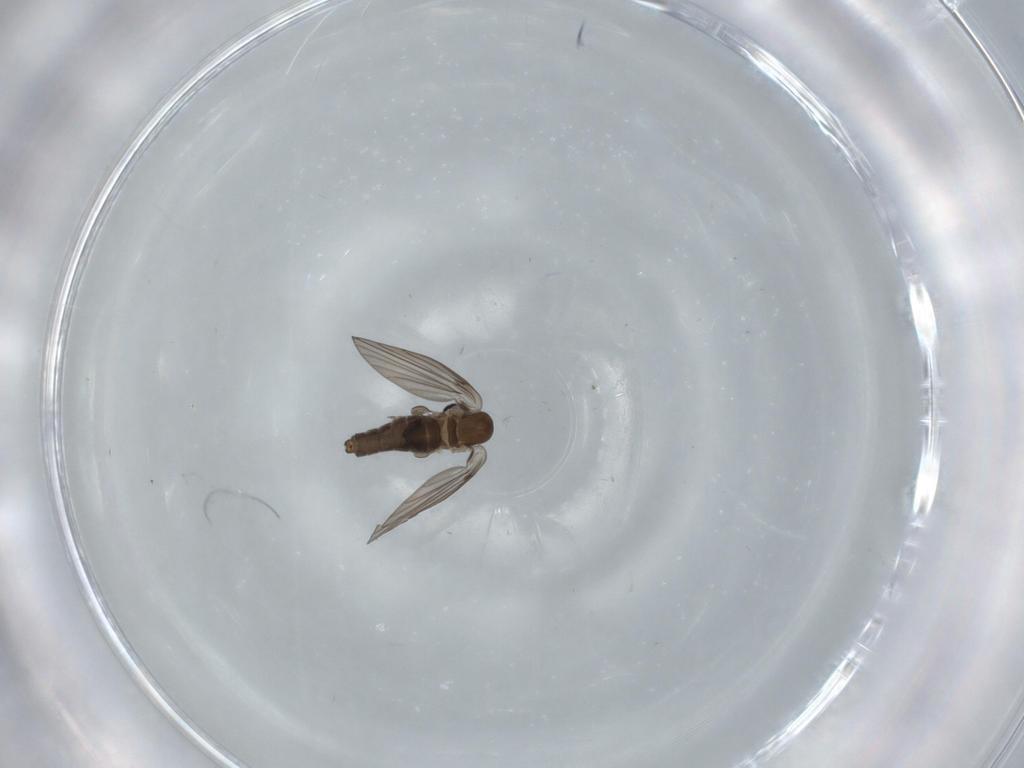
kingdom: Animalia
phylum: Arthropoda
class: Insecta
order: Diptera
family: Psychodidae
